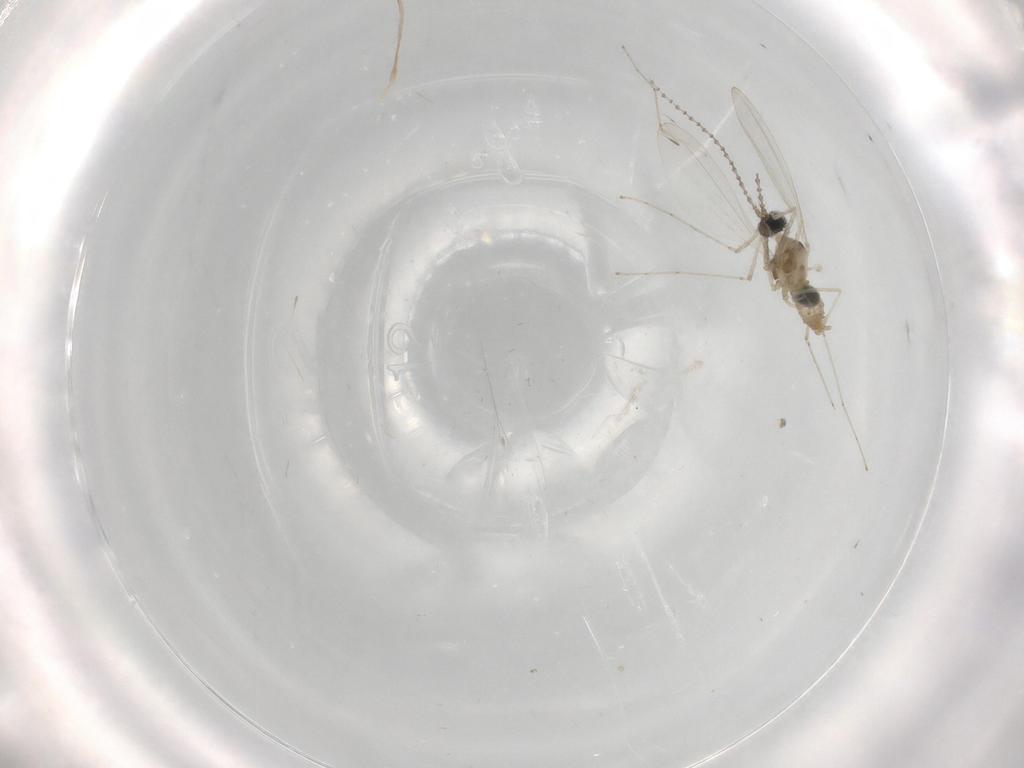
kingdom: Animalia
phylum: Arthropoda
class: Insecta
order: Diptera
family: Cecidomyiidae
